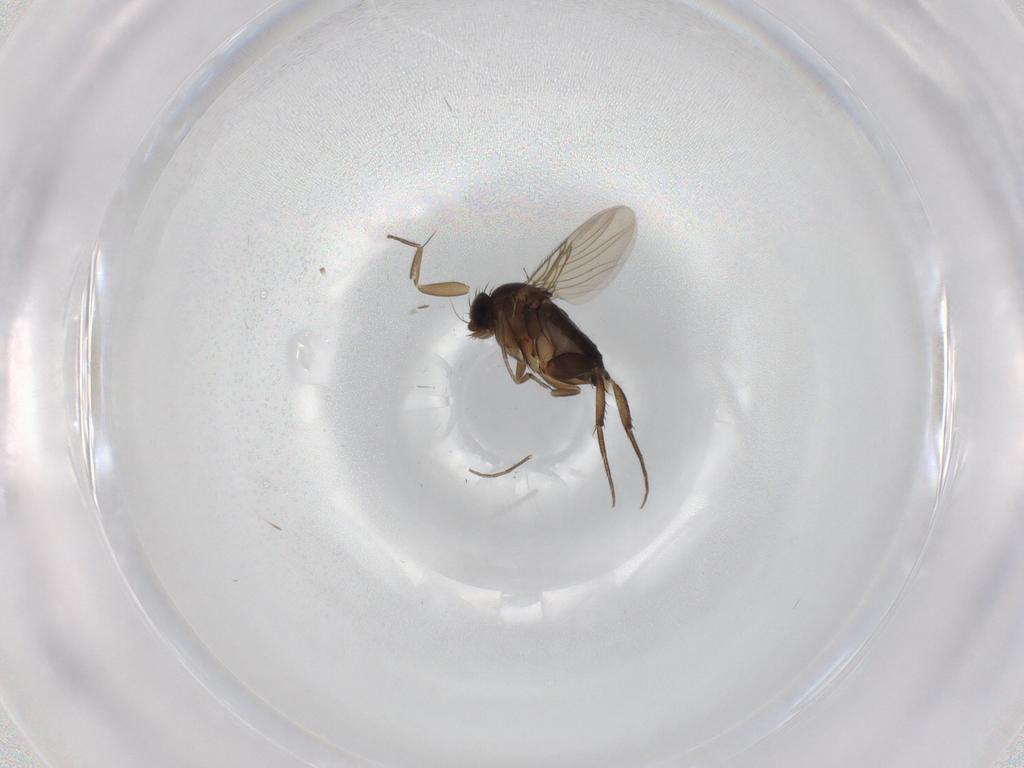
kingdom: Animalia
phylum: Arthropoda
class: Insecta
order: Diptera
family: Phoridae
